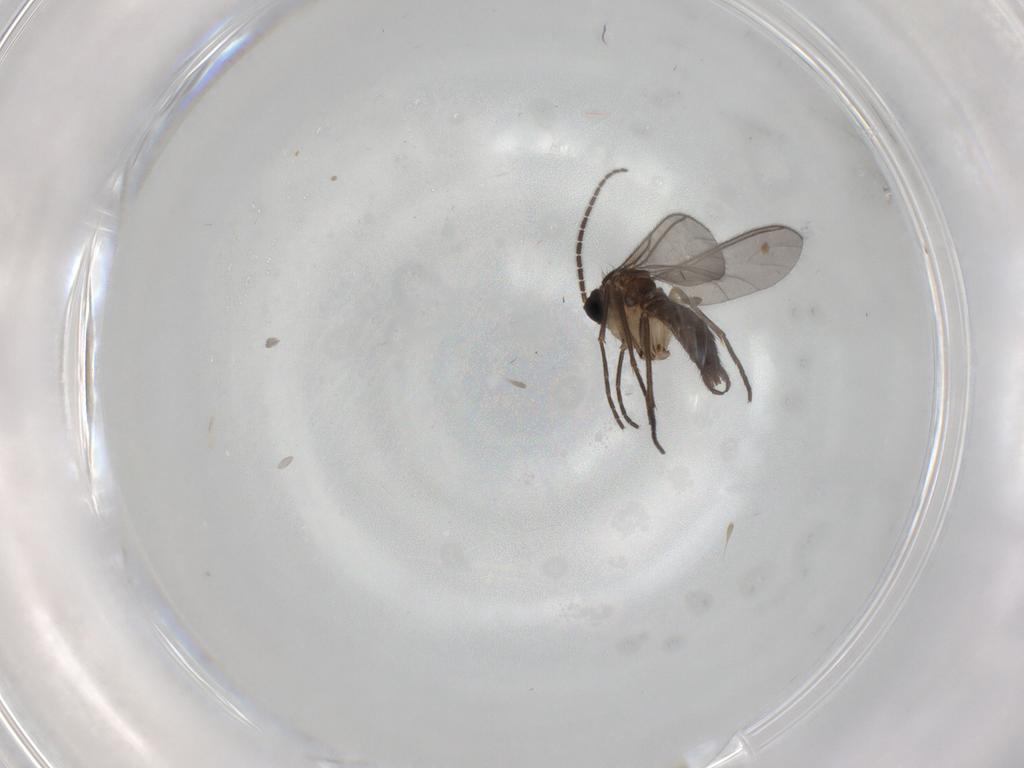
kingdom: Animalia
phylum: Arthropoda
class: Insecta
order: Diptera
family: Sciaridae
